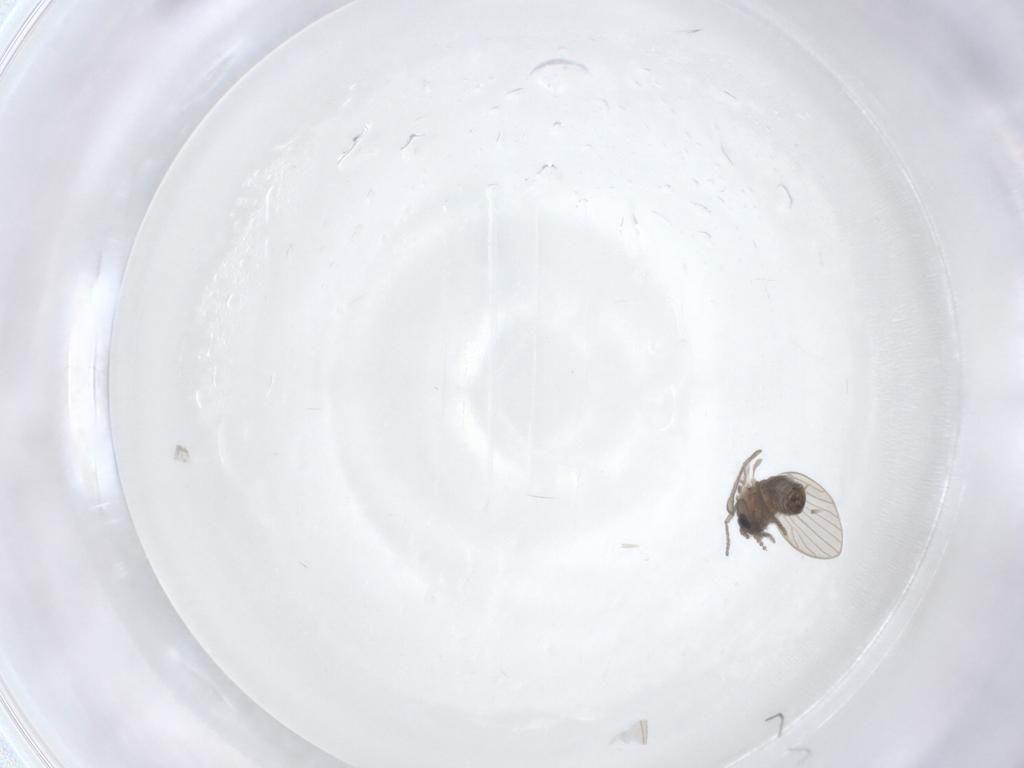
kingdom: Animalia
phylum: Arthropoda
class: Insecta
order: Diptera
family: Psychodidae
